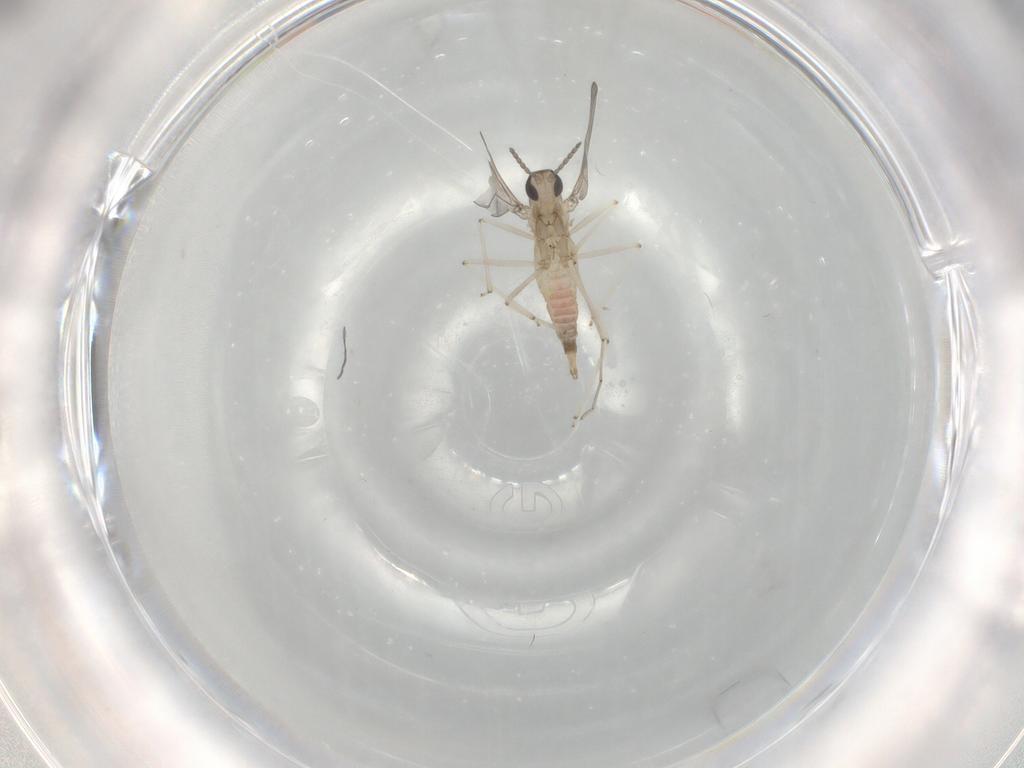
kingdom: Animalia
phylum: Arthropoda
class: Insecta
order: Diptera
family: Cecidomyiidae
